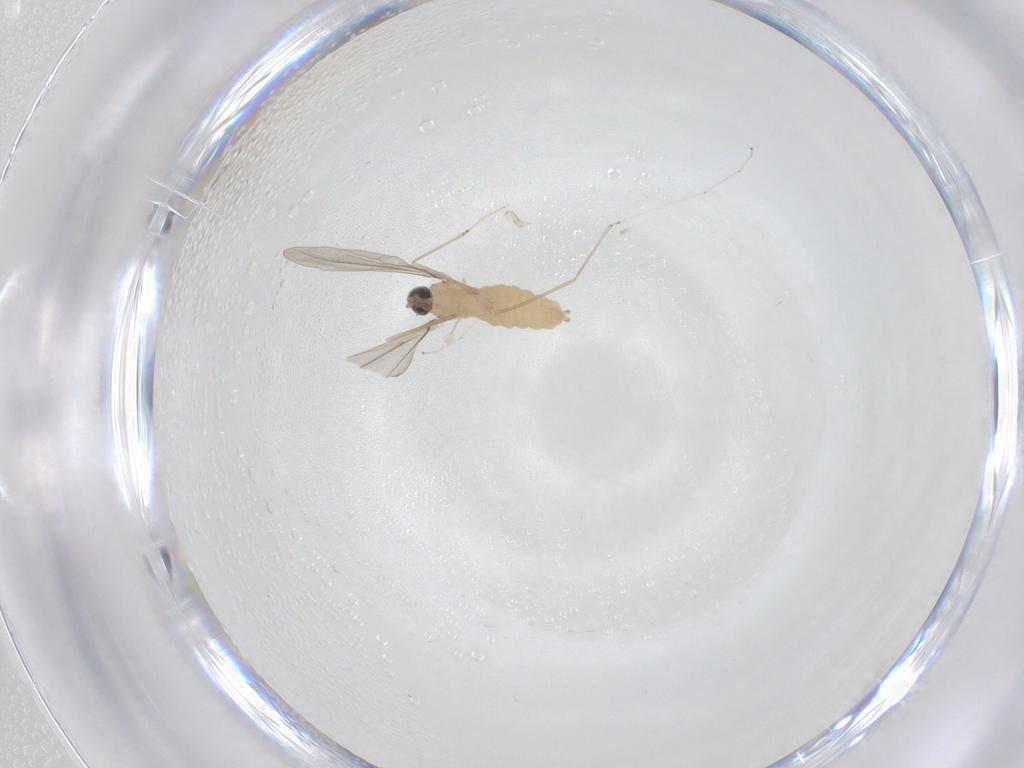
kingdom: Animalia
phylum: Arthropoda
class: Insecta
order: Diptera
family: Cecidomyiidae
